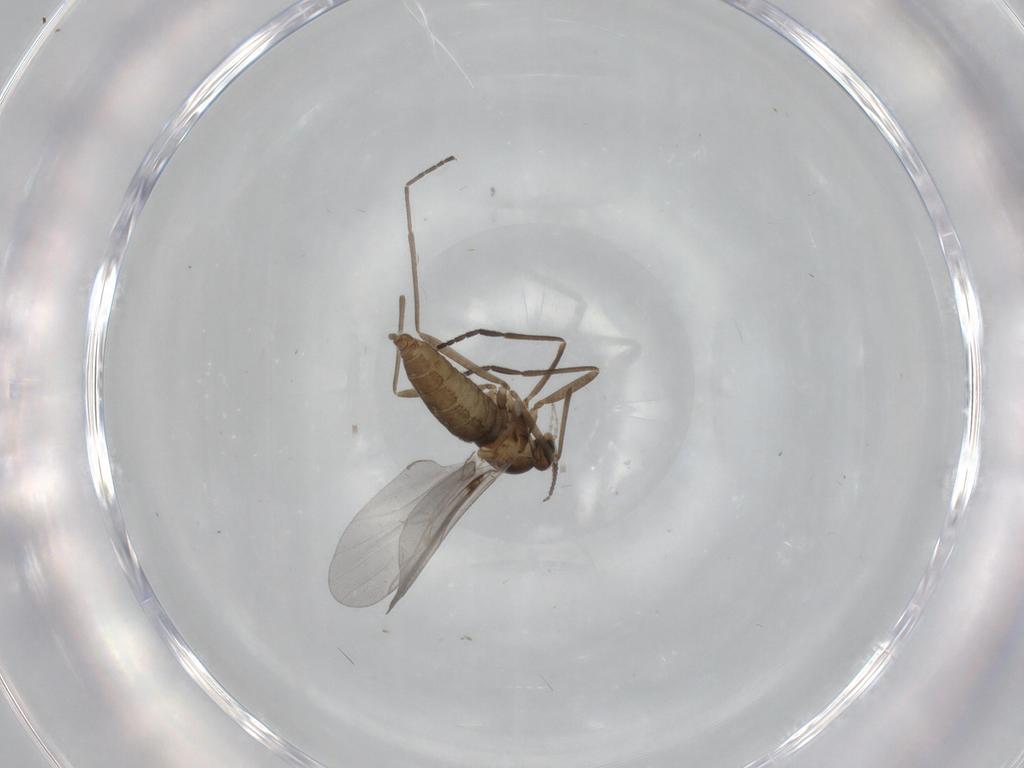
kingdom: Animalia
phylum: Arthropoda
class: Insecta
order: Diptera
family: Cecidomyiidae
